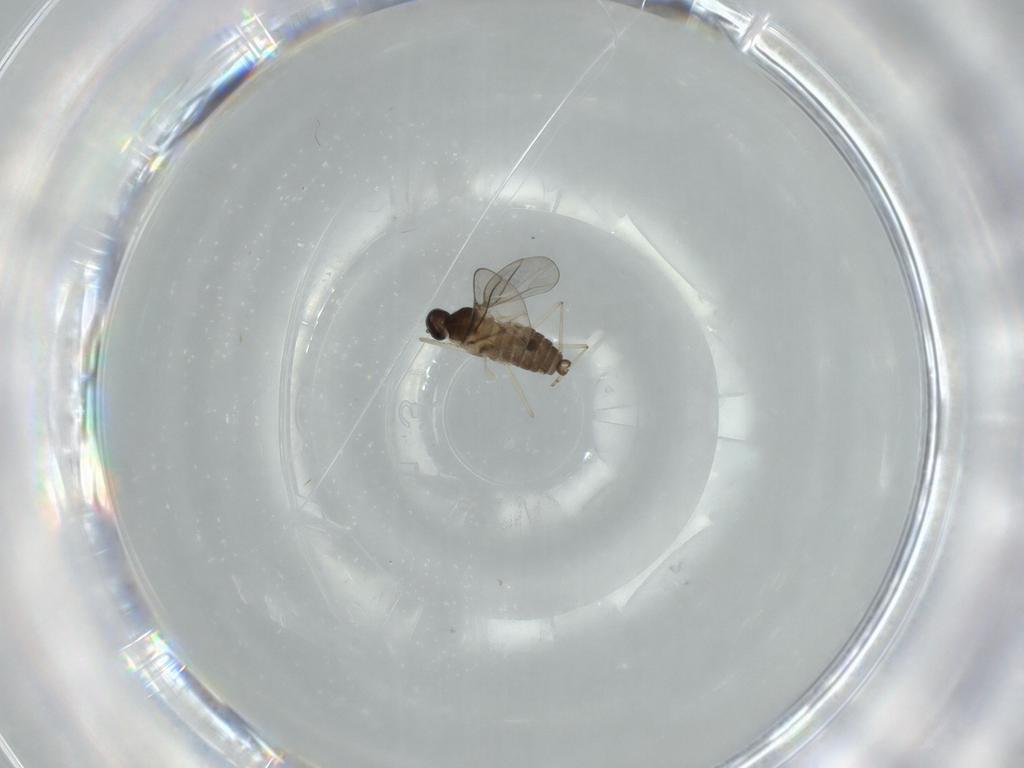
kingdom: Animalia
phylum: Arthropoda
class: Insecta
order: Diptera
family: Cecidomyiidae
